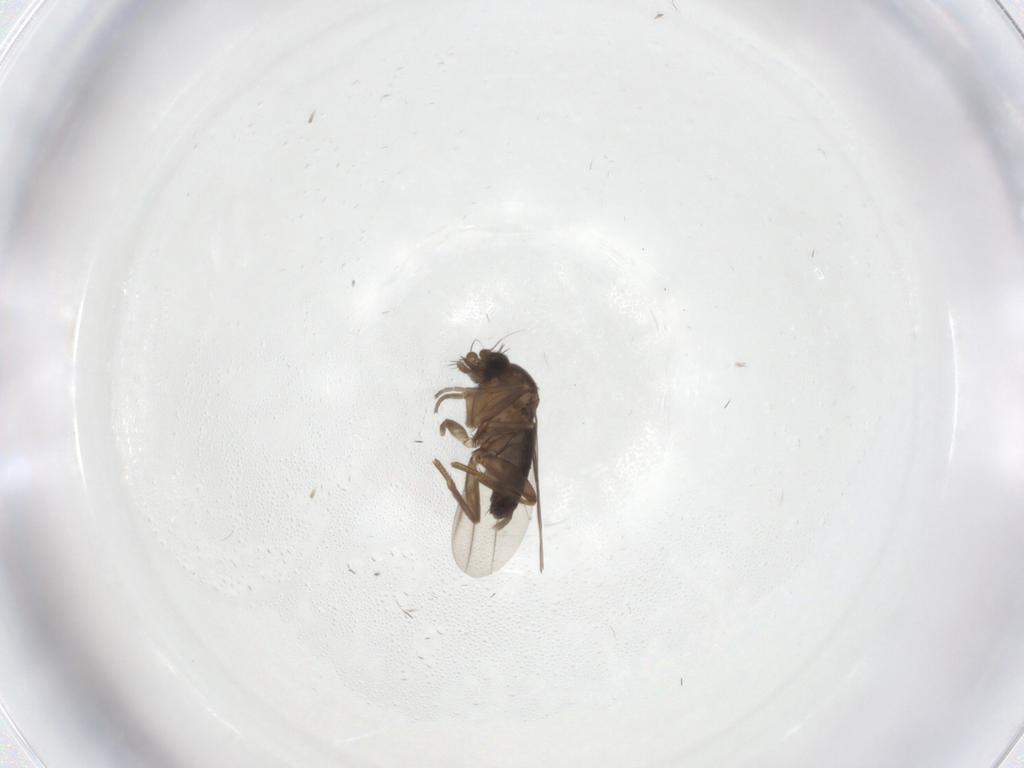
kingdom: Animalia
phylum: Arthropoda
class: Insecta
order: Diptera
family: Phoridae
